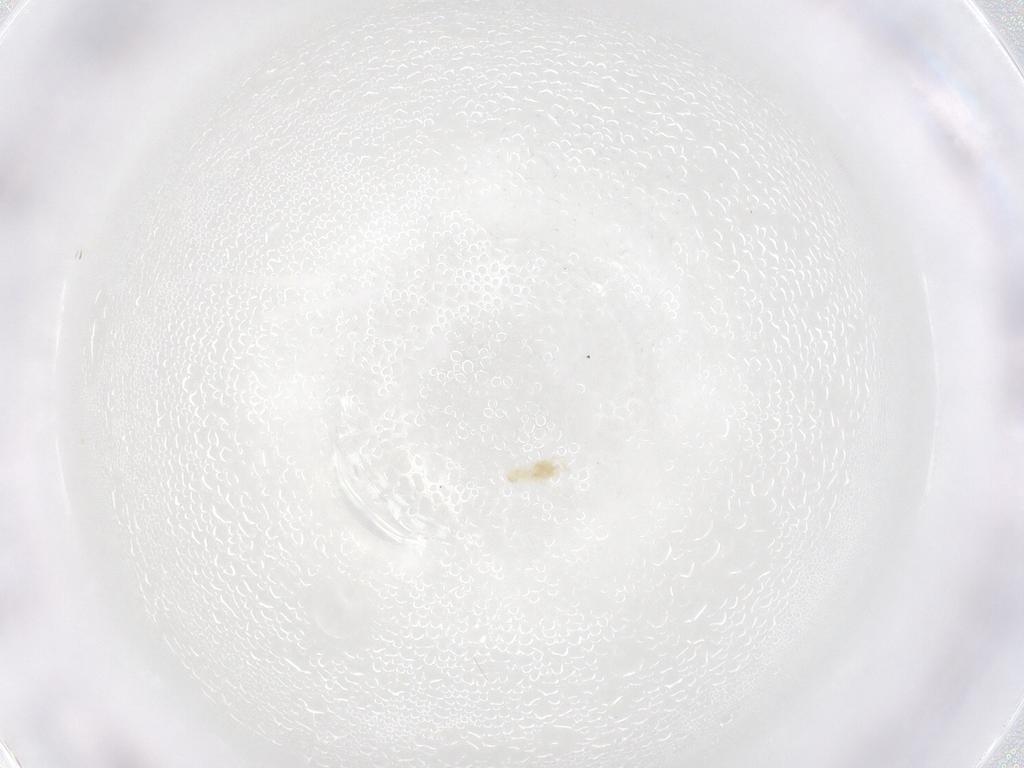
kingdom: Animalia
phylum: Arthropoda
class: Arachnida
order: Trombidiformes
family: Eupodidae
